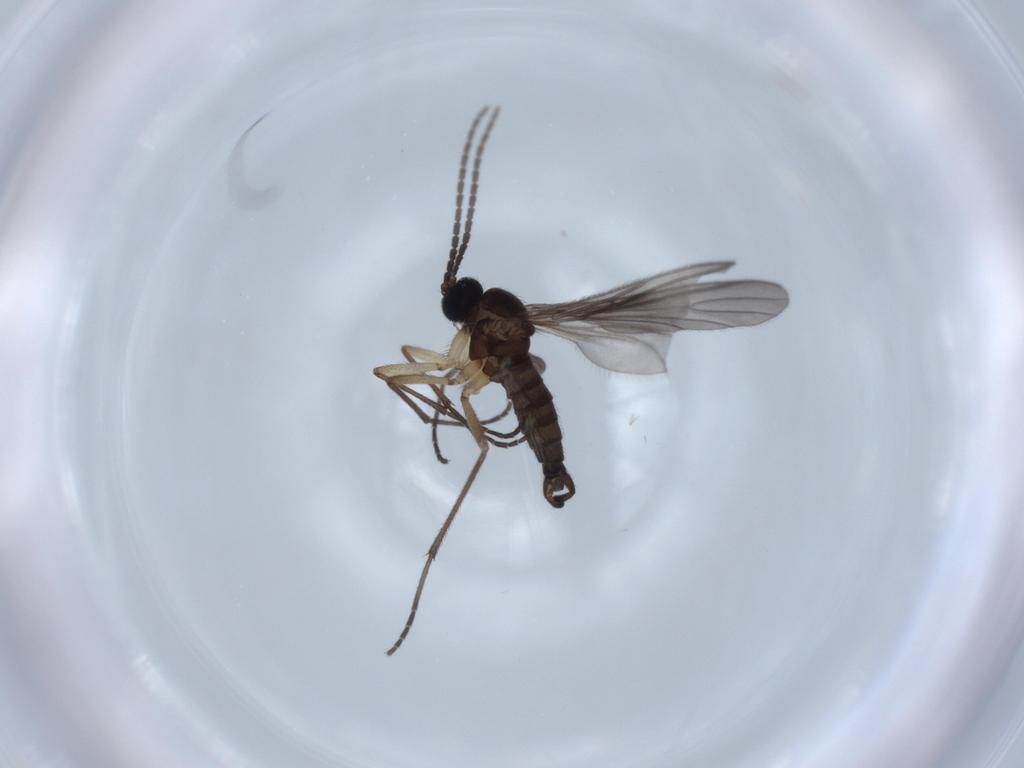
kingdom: Animalia
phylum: Arthropoda
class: Insecta
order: Diptera
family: Sciaridae
